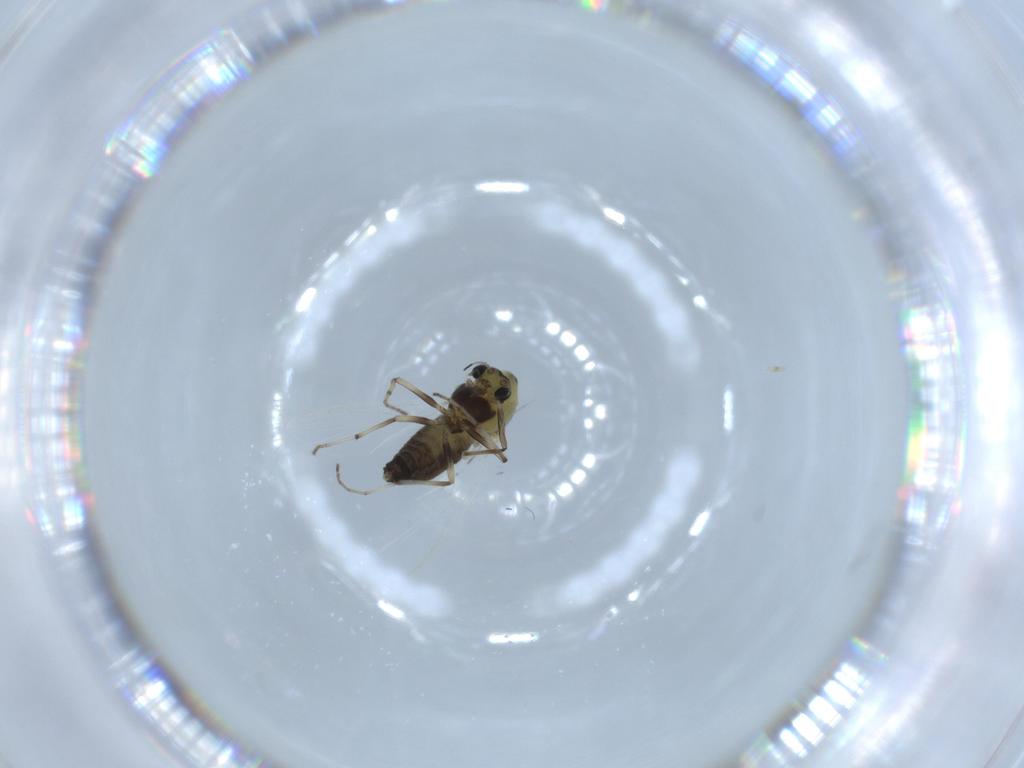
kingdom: Animalia
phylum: Arthropoda
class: Insecta
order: Diptera
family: Chironomidae
